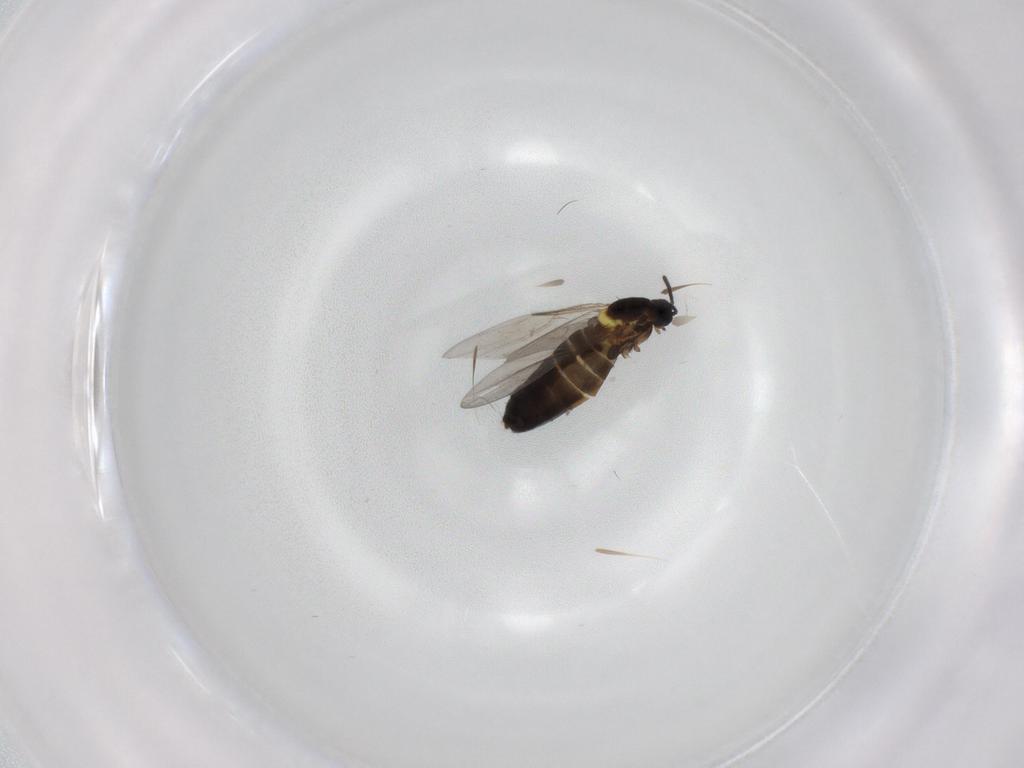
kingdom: Animalia
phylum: Arthropoda
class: Insecta
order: Diptera
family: Scatopsidae
